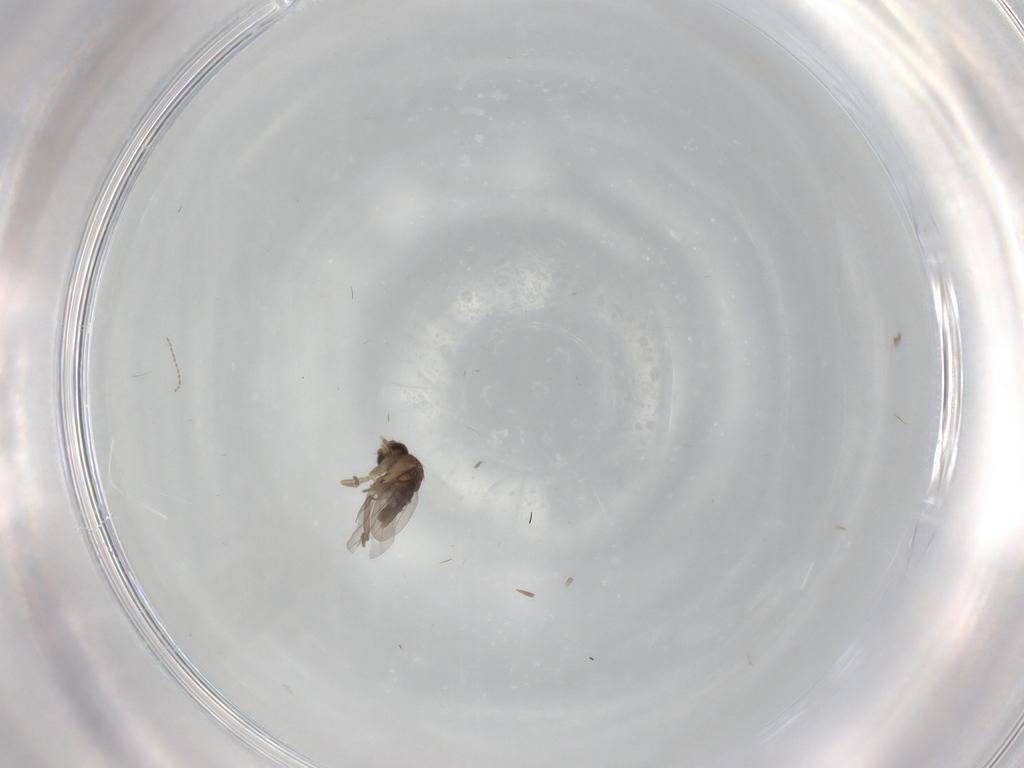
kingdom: Animalia
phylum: Arthropoda
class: Insecta
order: Diptera
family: Cecidomyiidae
